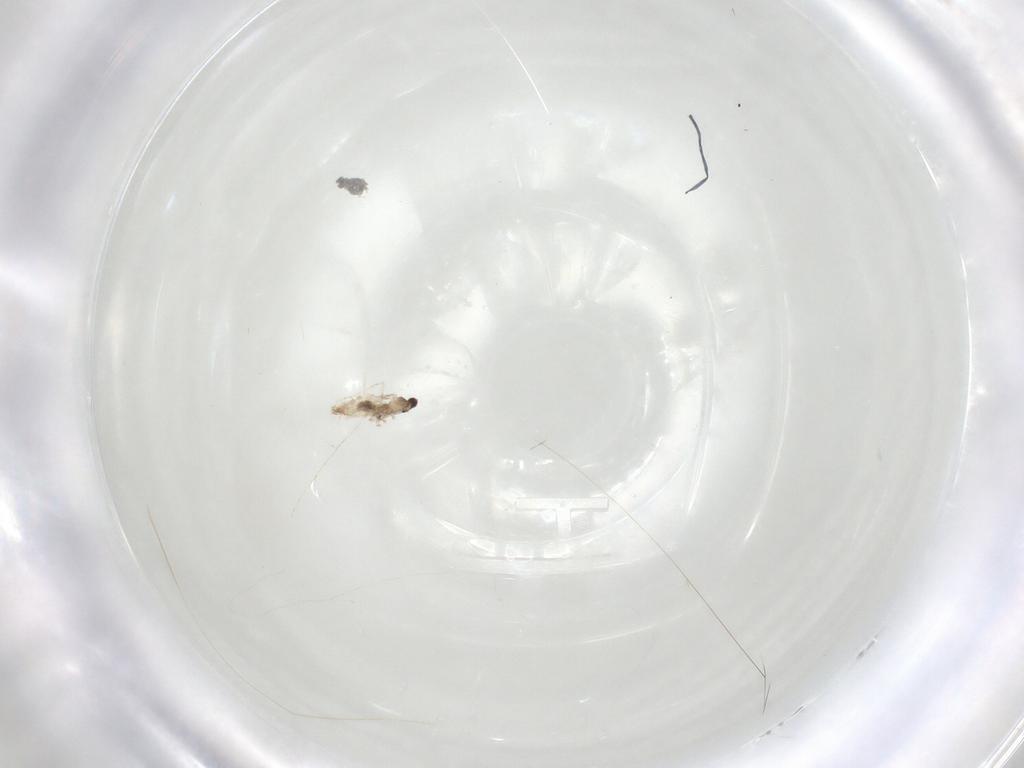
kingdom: Animalia
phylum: Arthropoda
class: Insecta
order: Diptera
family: Cecidomyiidae
